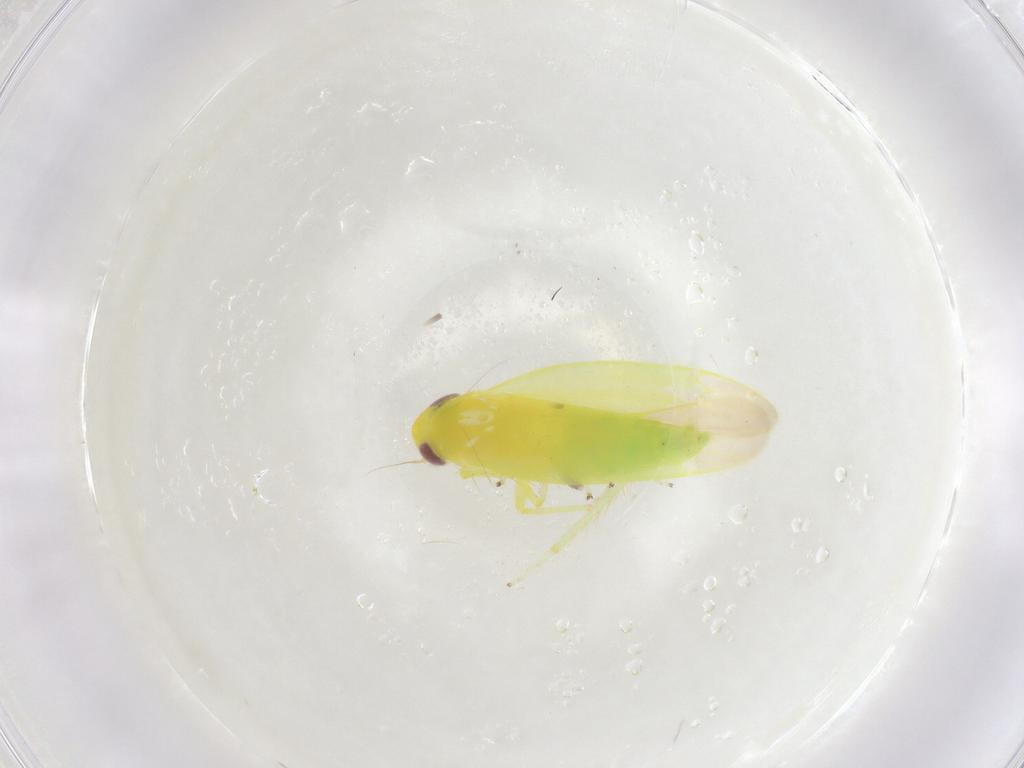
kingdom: Animalia
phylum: Arthropoda
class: Insecta
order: Hemiptera
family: Cicadellidae
